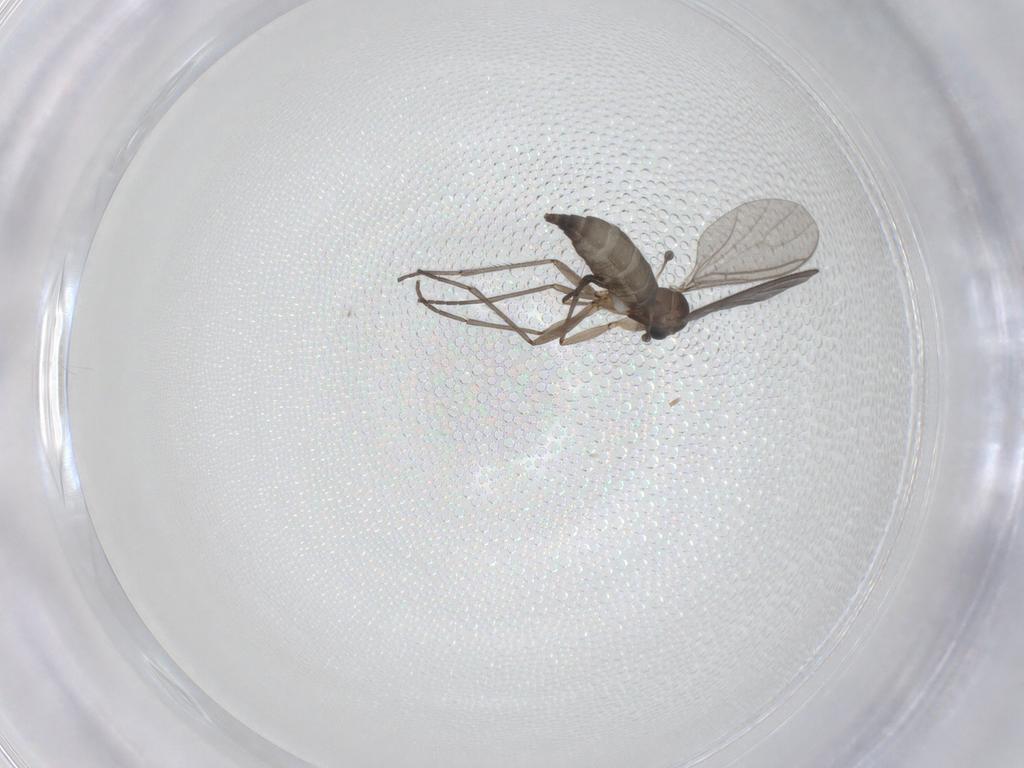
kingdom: Animalia
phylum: Arthropoda
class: Insecta
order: Diptera
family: Sciaridae
